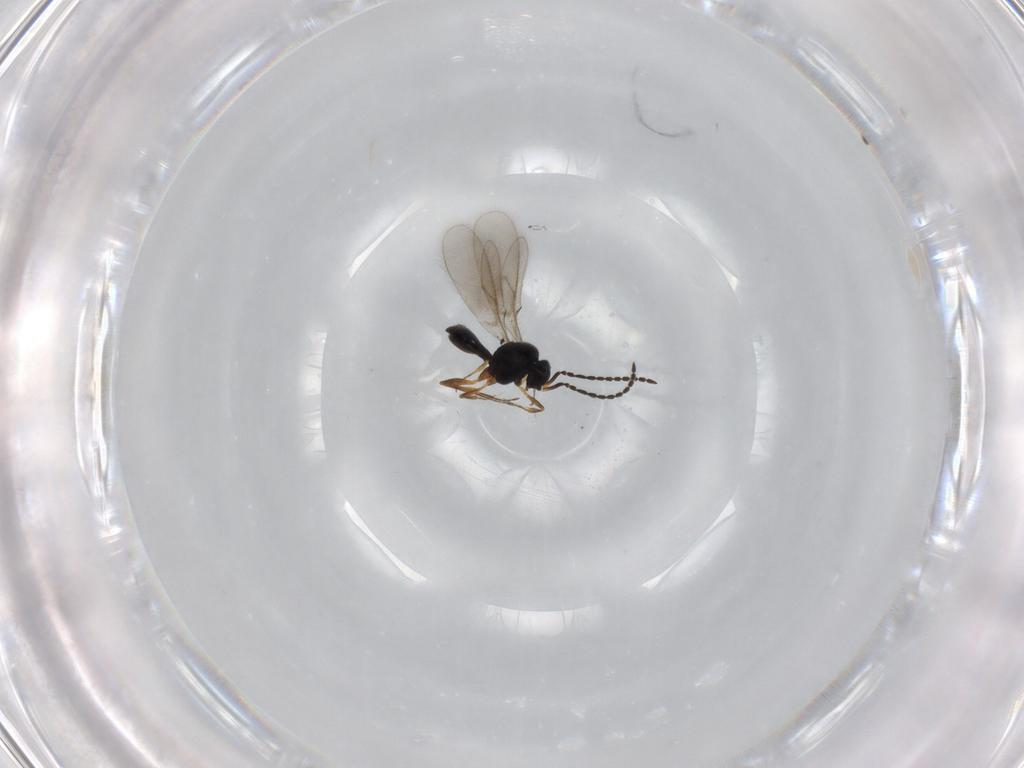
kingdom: Animalia
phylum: Arthropoda
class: Insecta
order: Hymenoptera
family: Scelionidae
